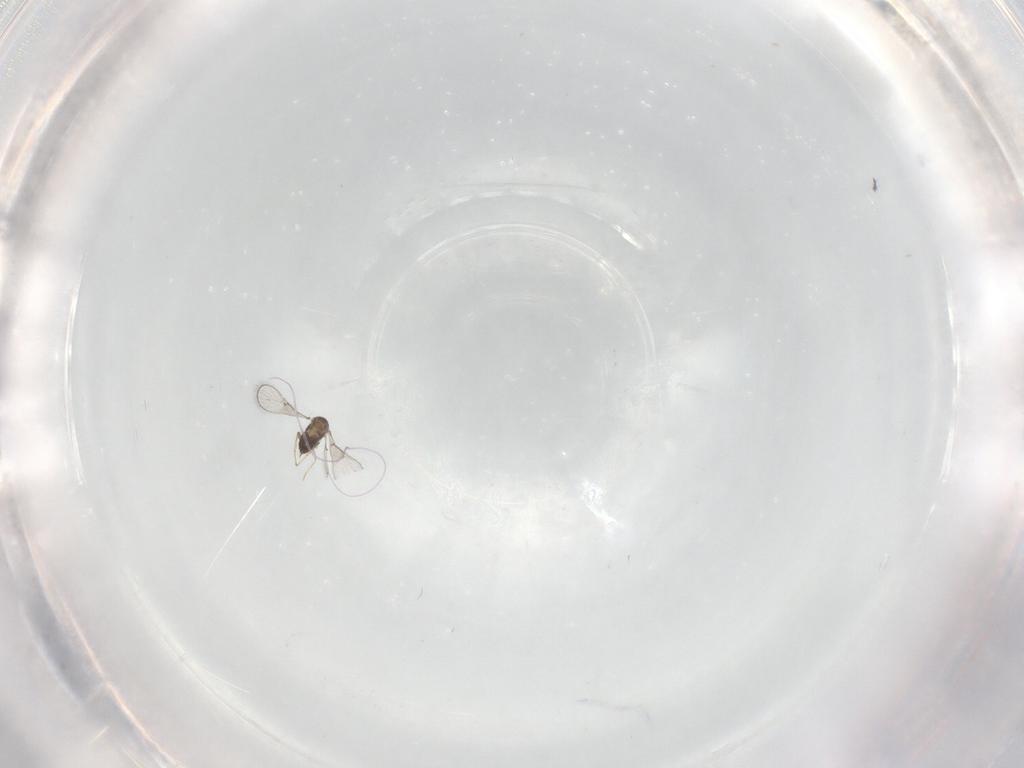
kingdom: Animalia
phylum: Arthropoda
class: Insecta
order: Hymenoptera
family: Trichogrammatidae
